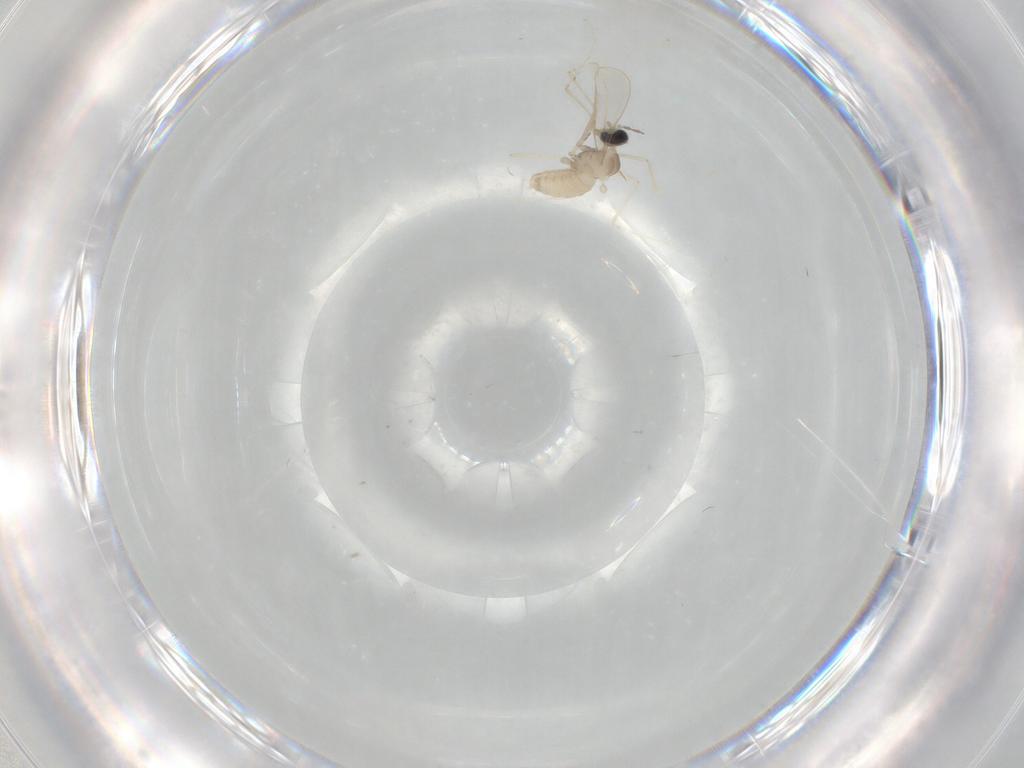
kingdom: Animalia
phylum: Arthropoda
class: Insecta
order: Diptera
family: Cecidomyiidae
